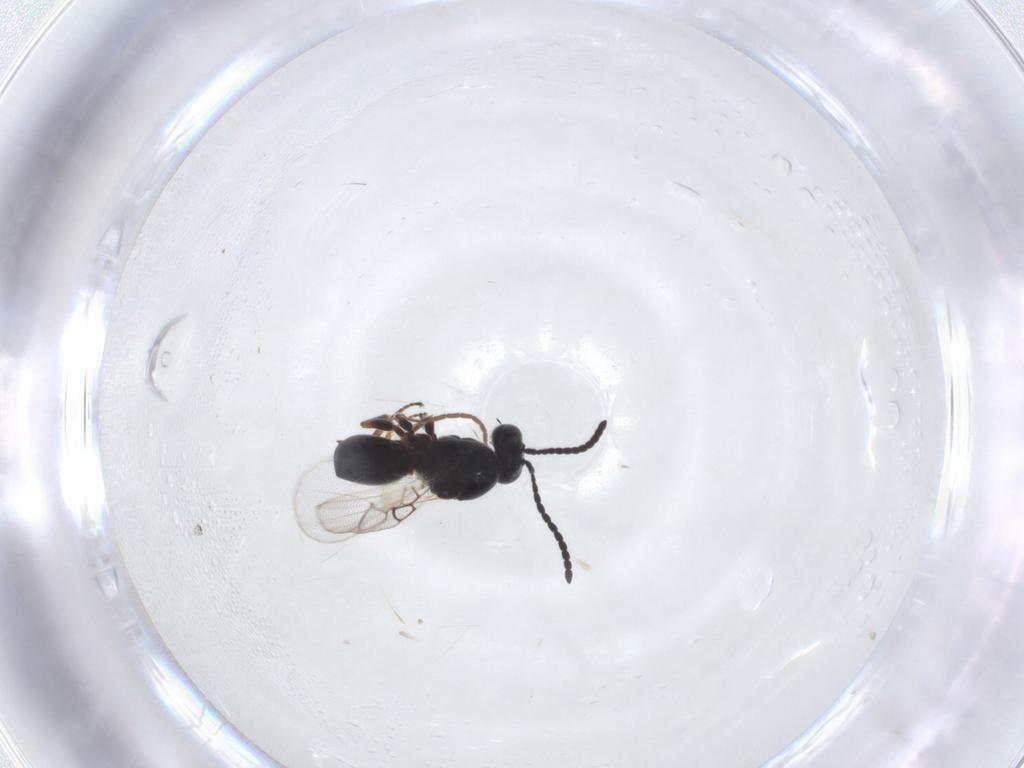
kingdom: Animalia
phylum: Arthropoda
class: Insecta
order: Hymenoptera
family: Figitidae
